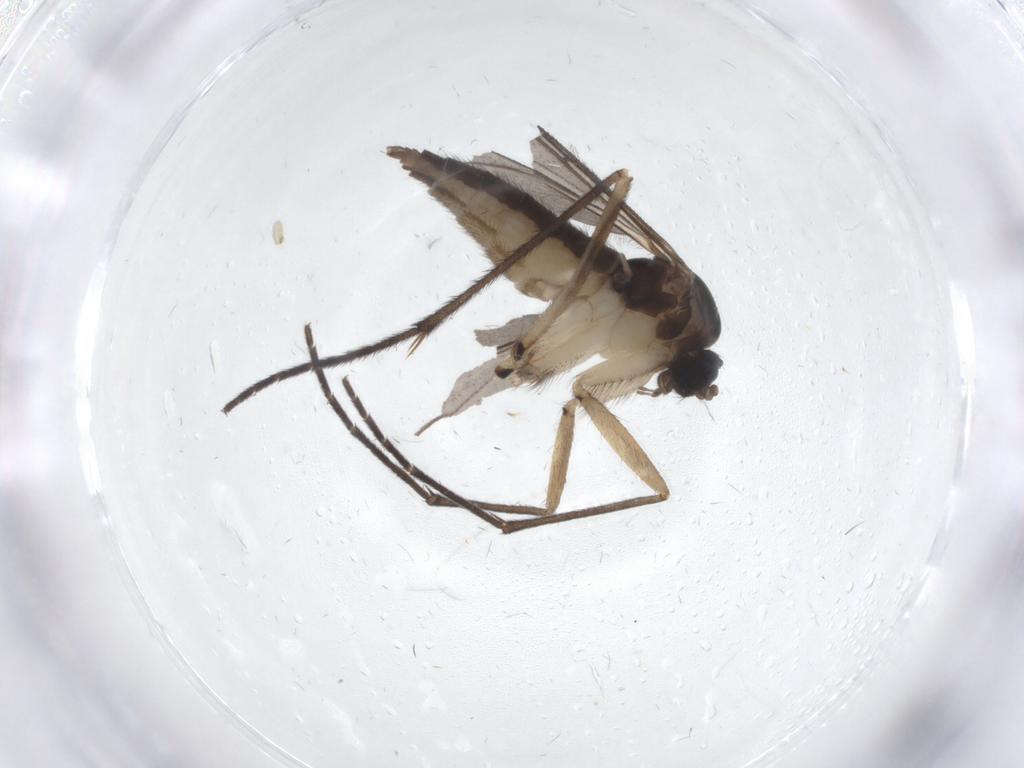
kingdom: Animalia
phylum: Arthropoda
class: Insecta
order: Diptera
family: Sciaridae
